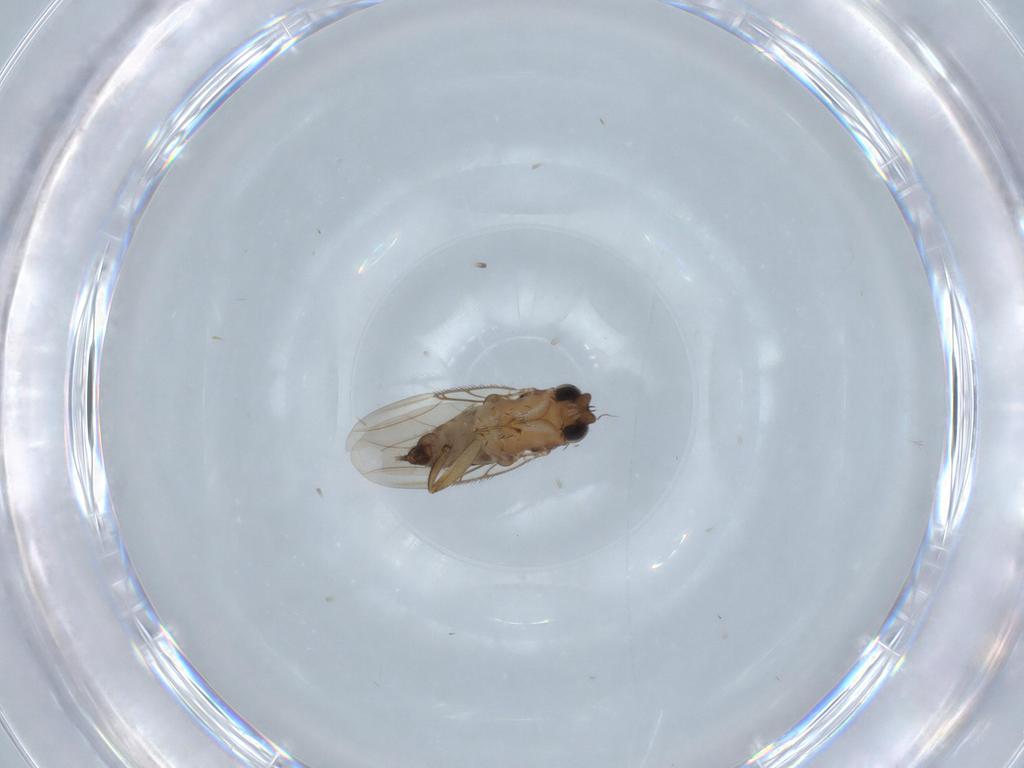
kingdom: Animalia
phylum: Arthropoda
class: Insecta
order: Diptera
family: Phoridae
